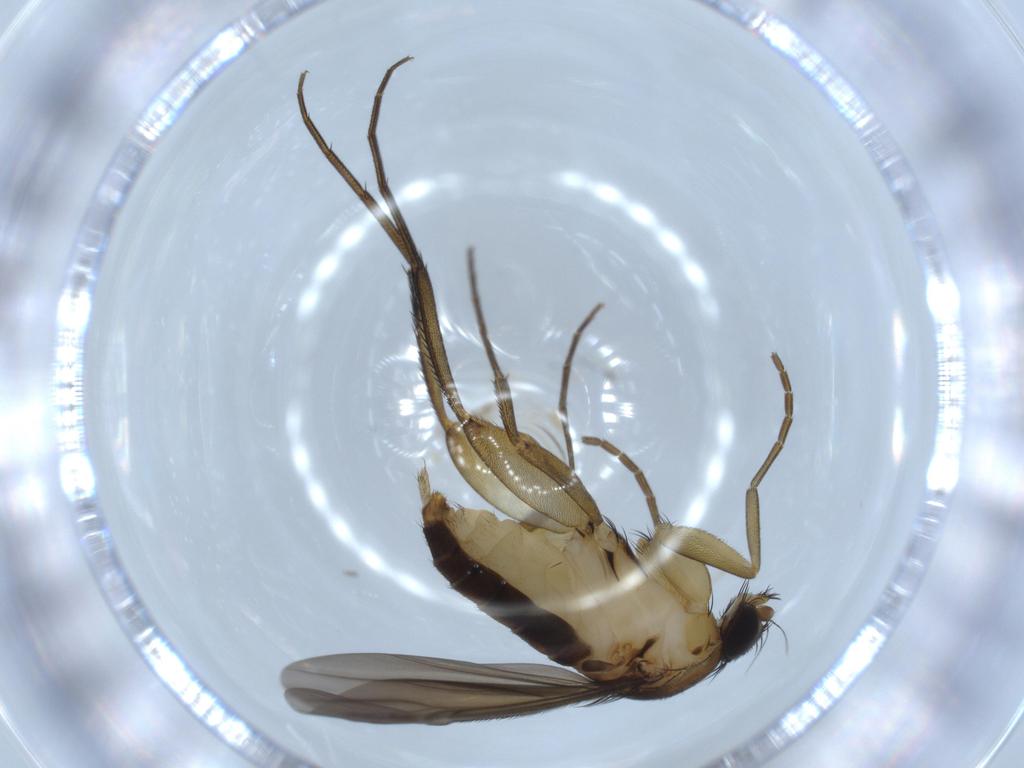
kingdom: Animalia
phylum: Arthropoda
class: Insecta
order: Diptera
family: Phoridae
